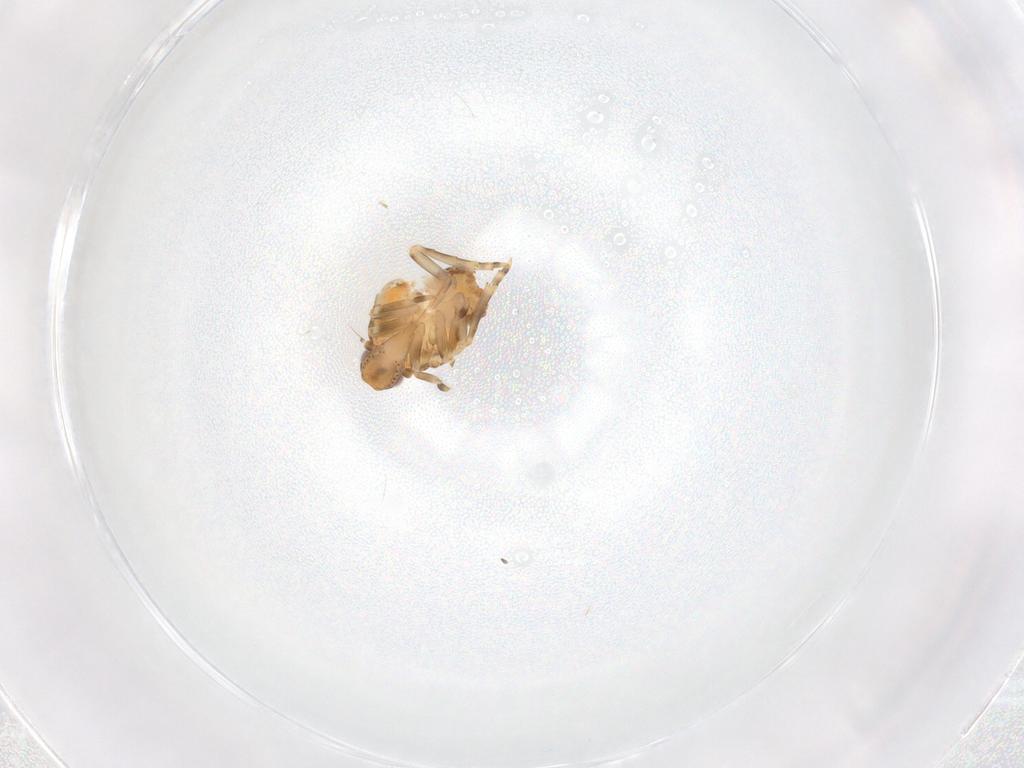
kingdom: Animalia
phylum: Arthropoda
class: Insecta
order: Hemiptera
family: Flatidae
